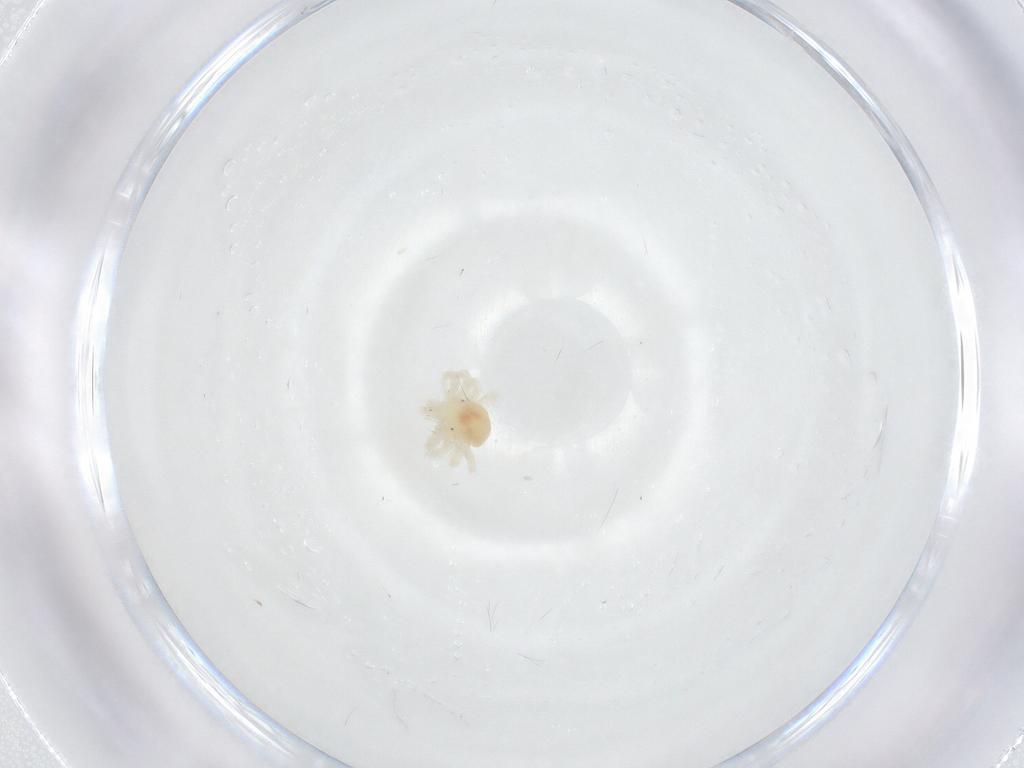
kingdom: Animalia
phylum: Arthropoda
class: Arachnida
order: Trombidiformes
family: Anystidae
